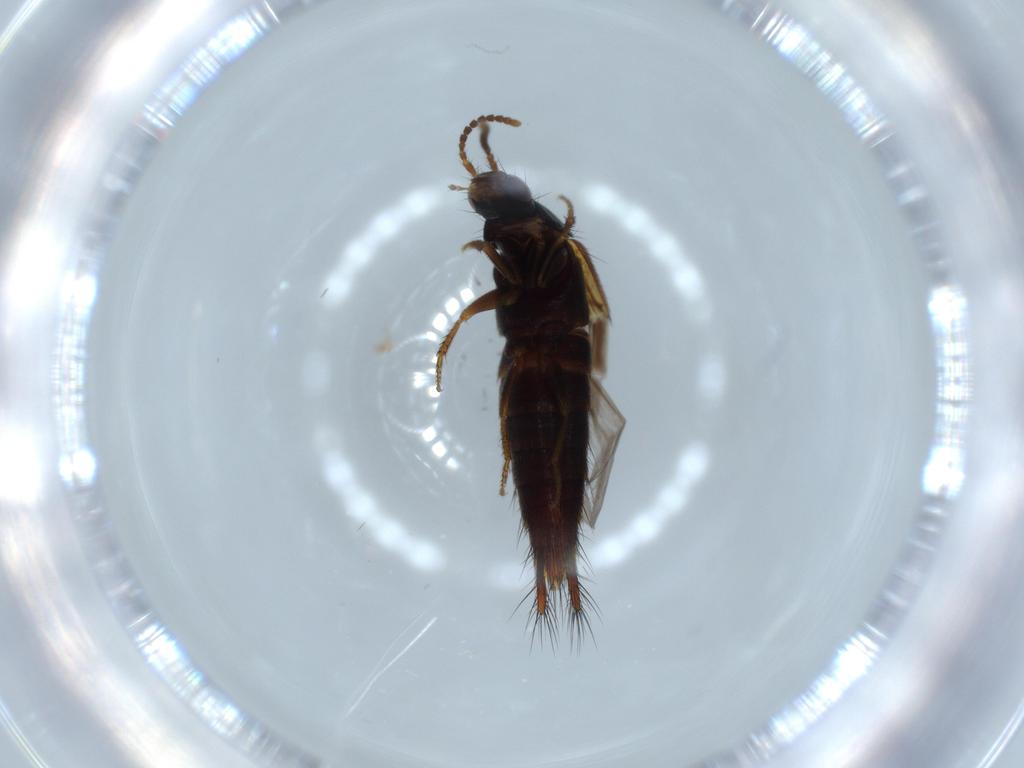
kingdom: Animalia
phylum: Arthropoda
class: Insecta
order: Coleoptera
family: Staphylinidae
